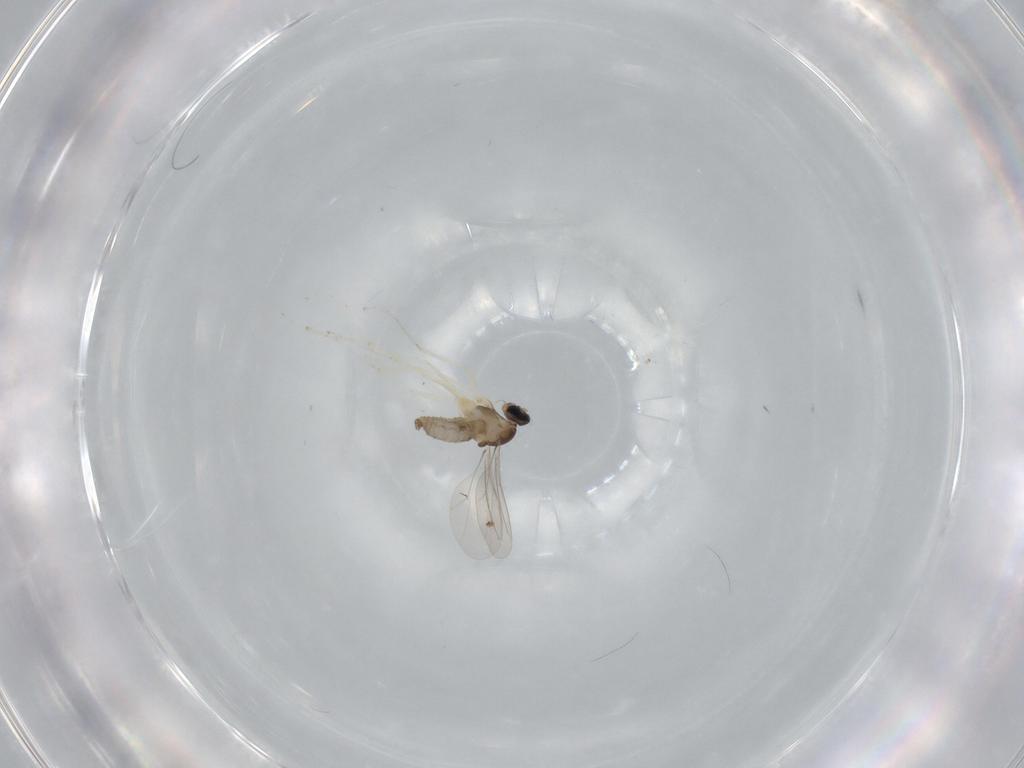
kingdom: Animalia
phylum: Arthropoda
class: Insecta
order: Diptera
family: Cecidomyiidae
